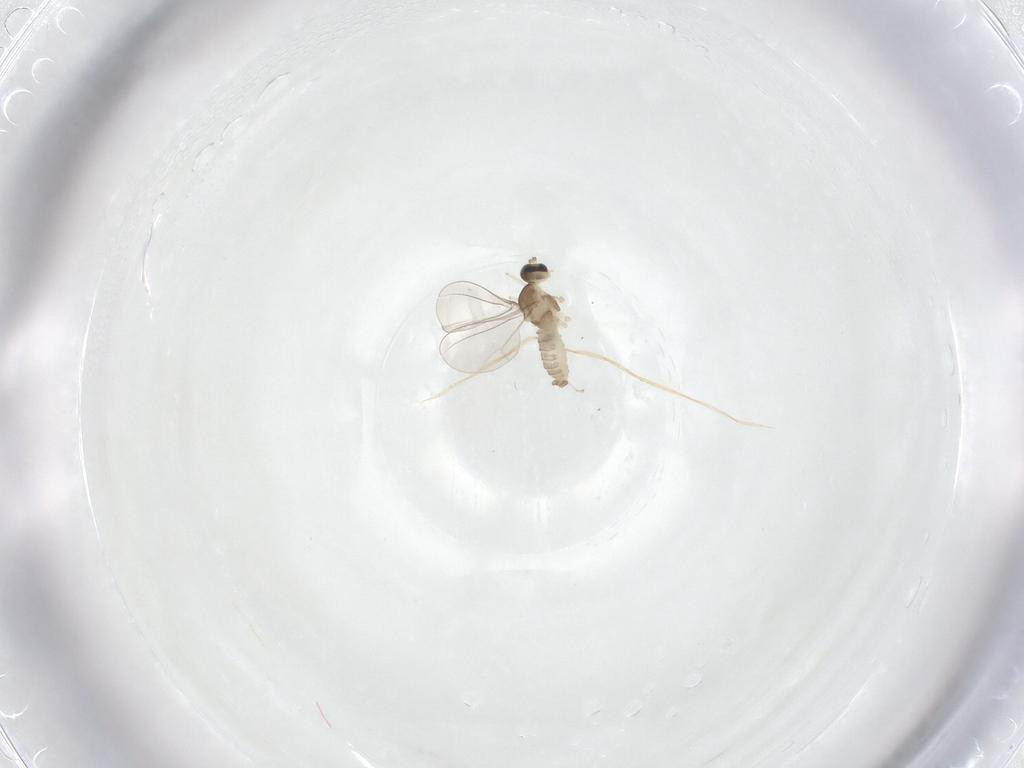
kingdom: Animalia
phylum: Arthropoda
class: Insecta
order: Diptera
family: Cecidomyiidae
